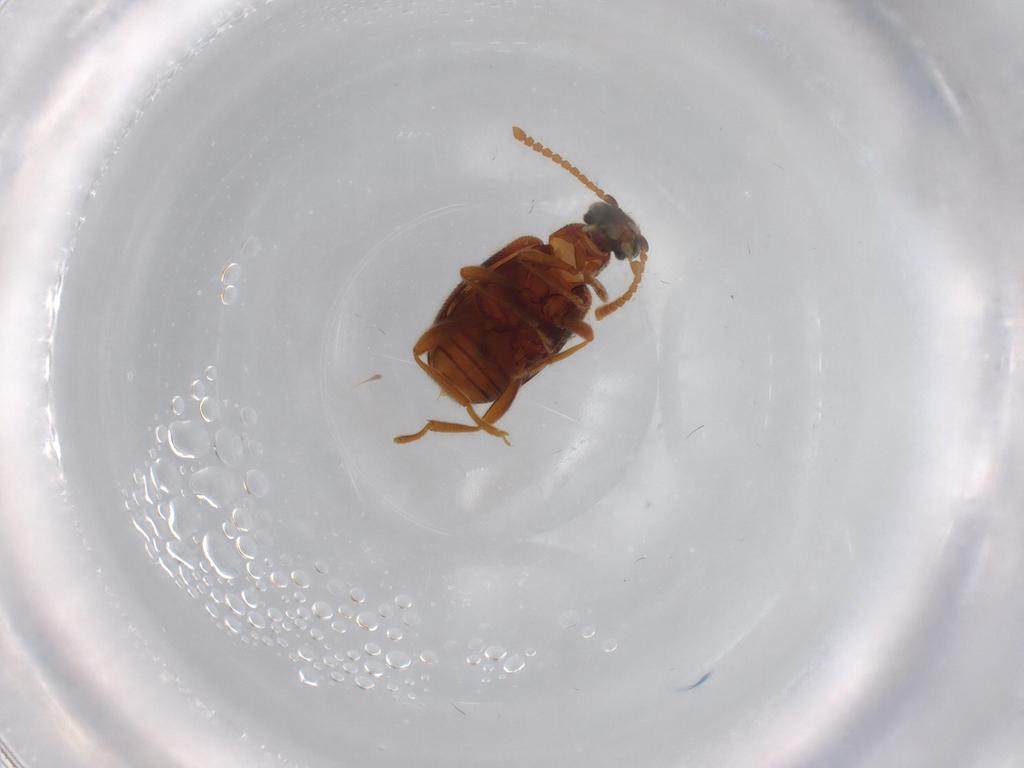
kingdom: Animalia
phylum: Arthropoda
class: Insecta
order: Coleoptera
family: Aderidae
